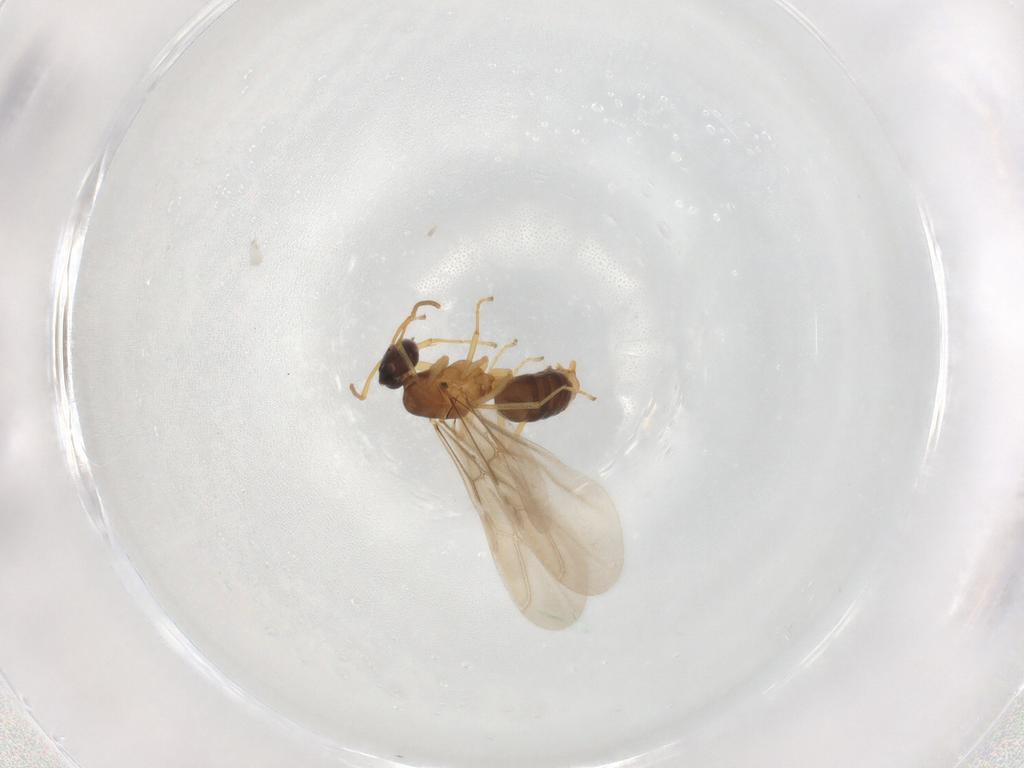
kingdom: Animalia
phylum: Arthropoda
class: Insecta
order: Hymenoptera
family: Formicidae
